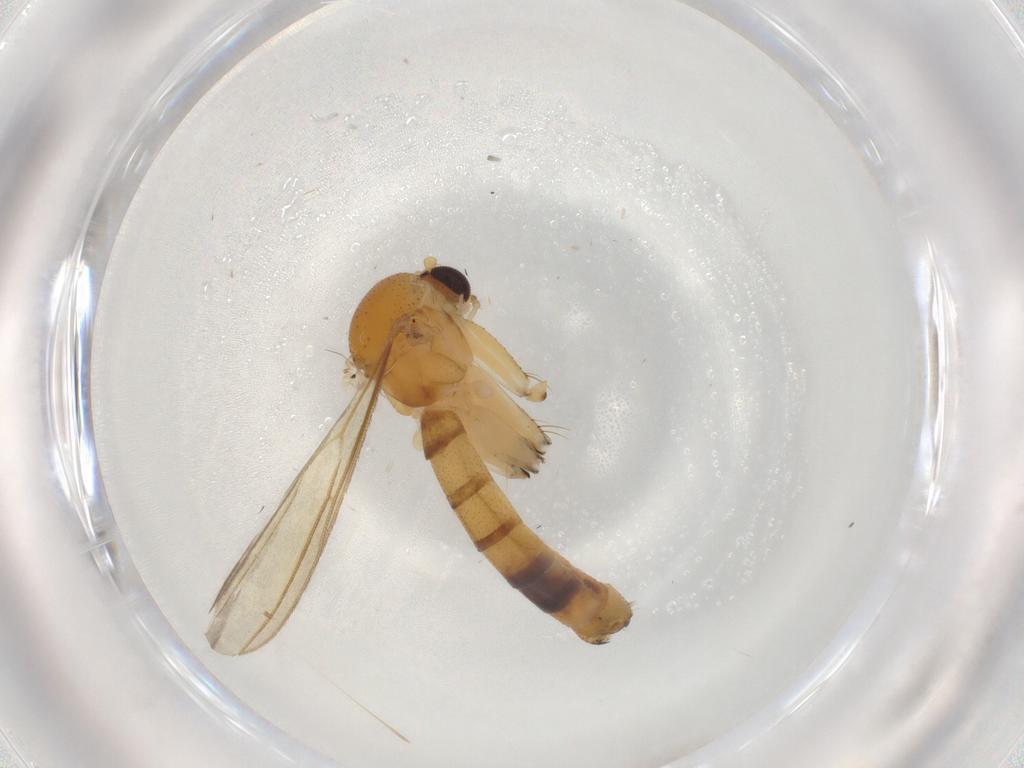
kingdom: Animalia
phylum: Arthropoda
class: Insecta
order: Diptera
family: Mycetophilidae
